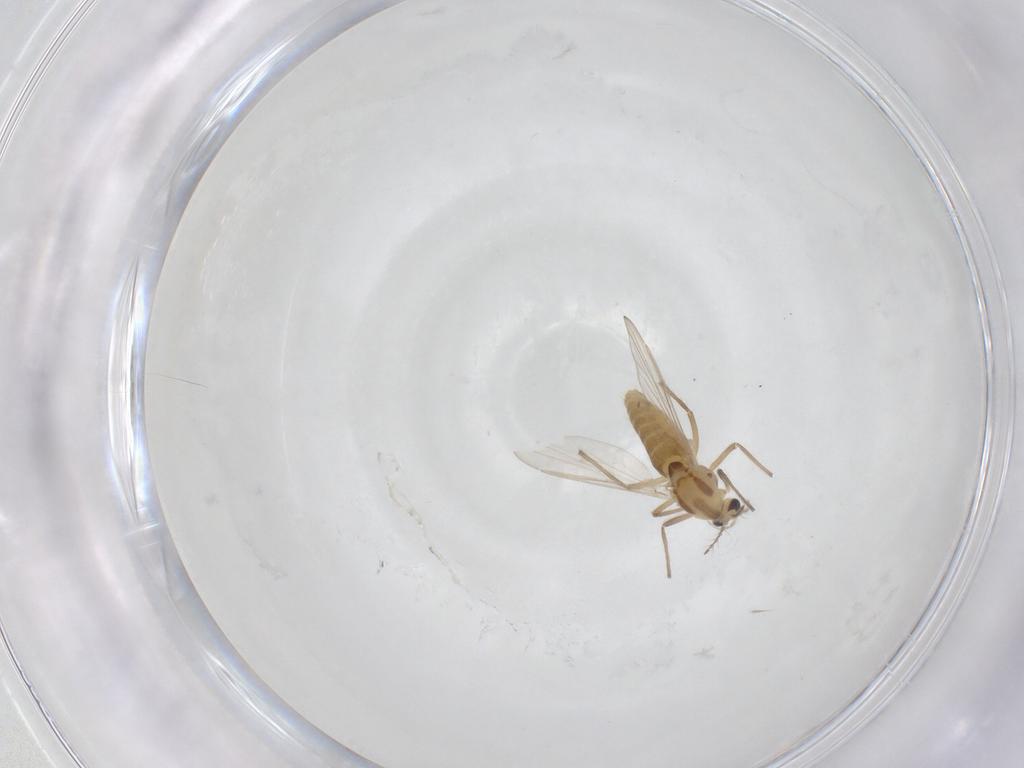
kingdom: Animalia
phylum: Arthropoda
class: Insecta
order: Diptera
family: Chironomidae
